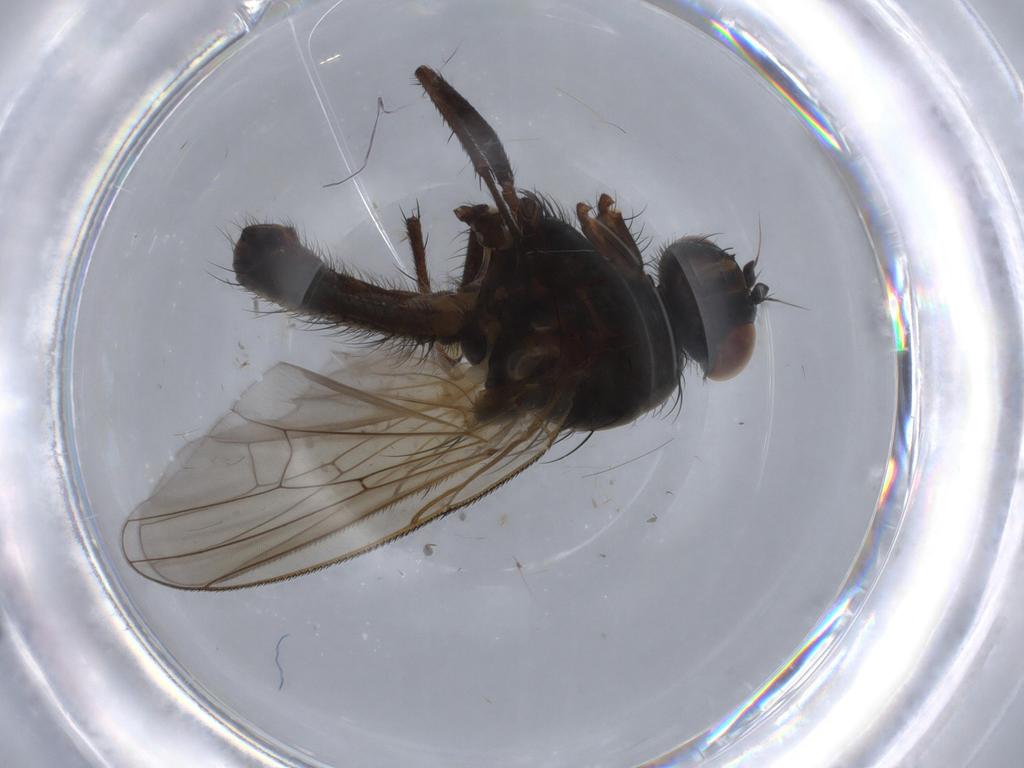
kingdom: Animalia
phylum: Arthropoda
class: Insecta
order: Diptera
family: Anthomyiidae
